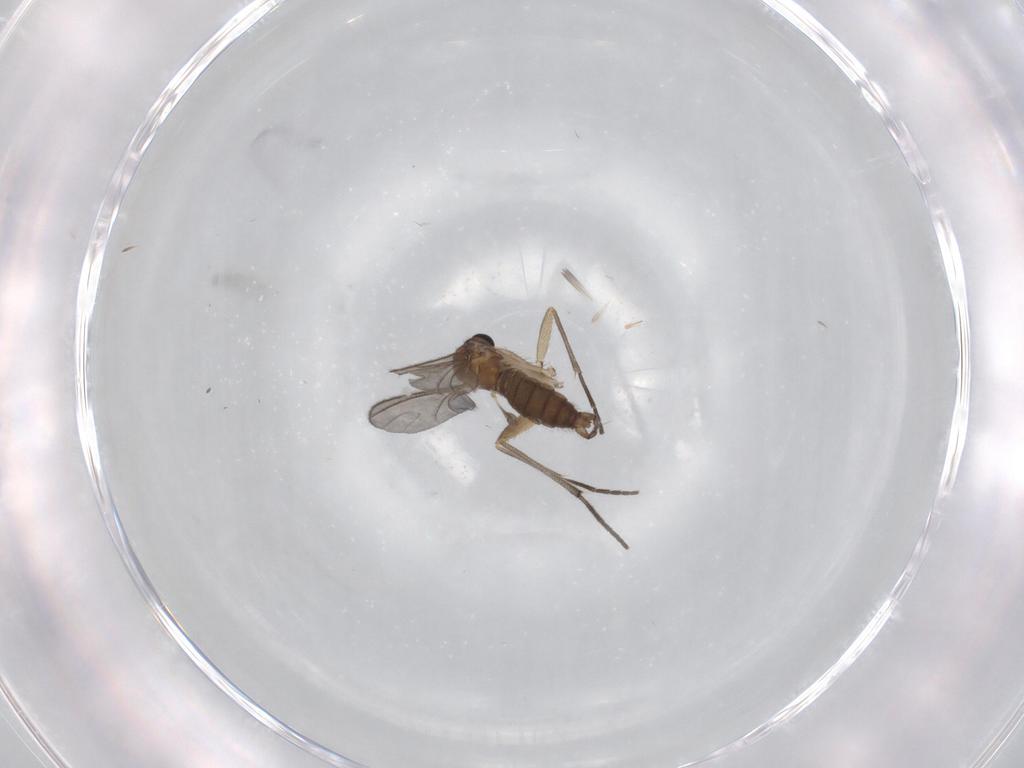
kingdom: Animalia
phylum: Arthropoda
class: Insecta
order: Diptera
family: Sciaridae
